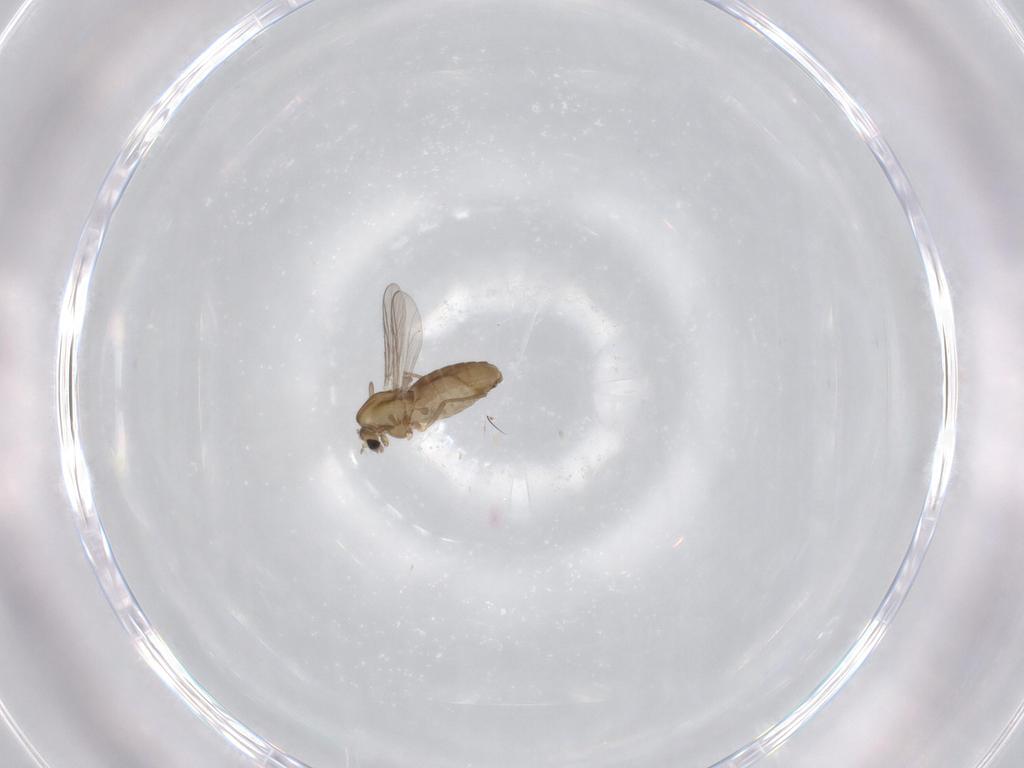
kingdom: Animalia
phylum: Arthropoda
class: Insecta
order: Diptera
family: Chironomidae
